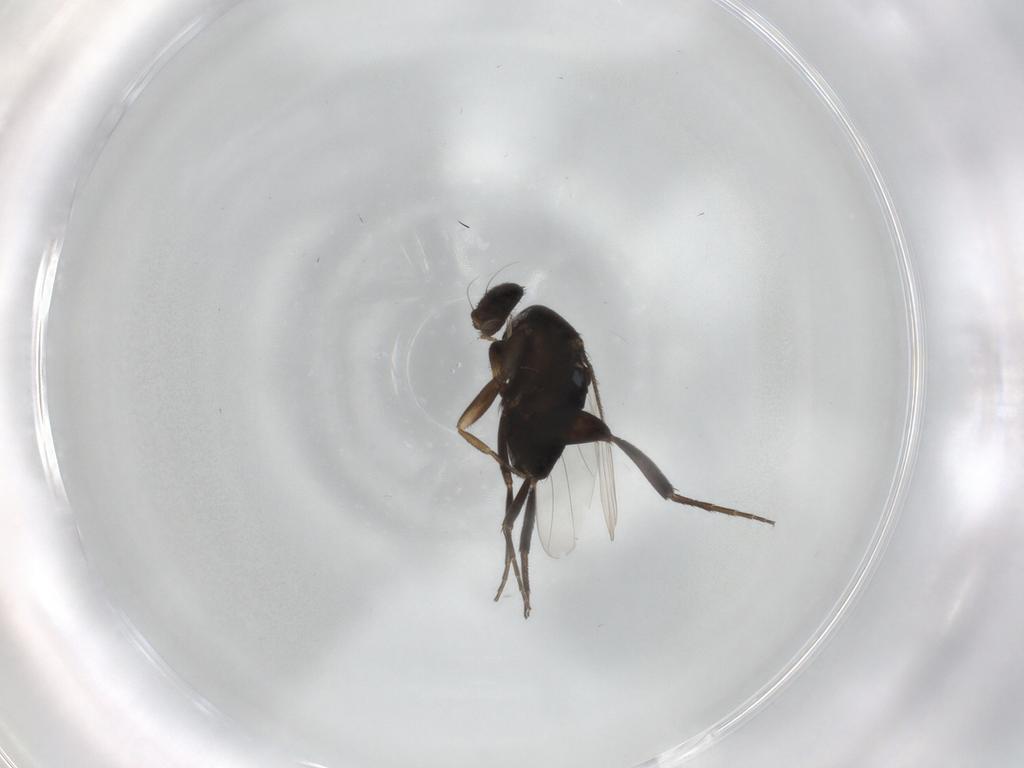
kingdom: Animalia
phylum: Arthropoda
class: Insecta
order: Diptera
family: Phoridae
